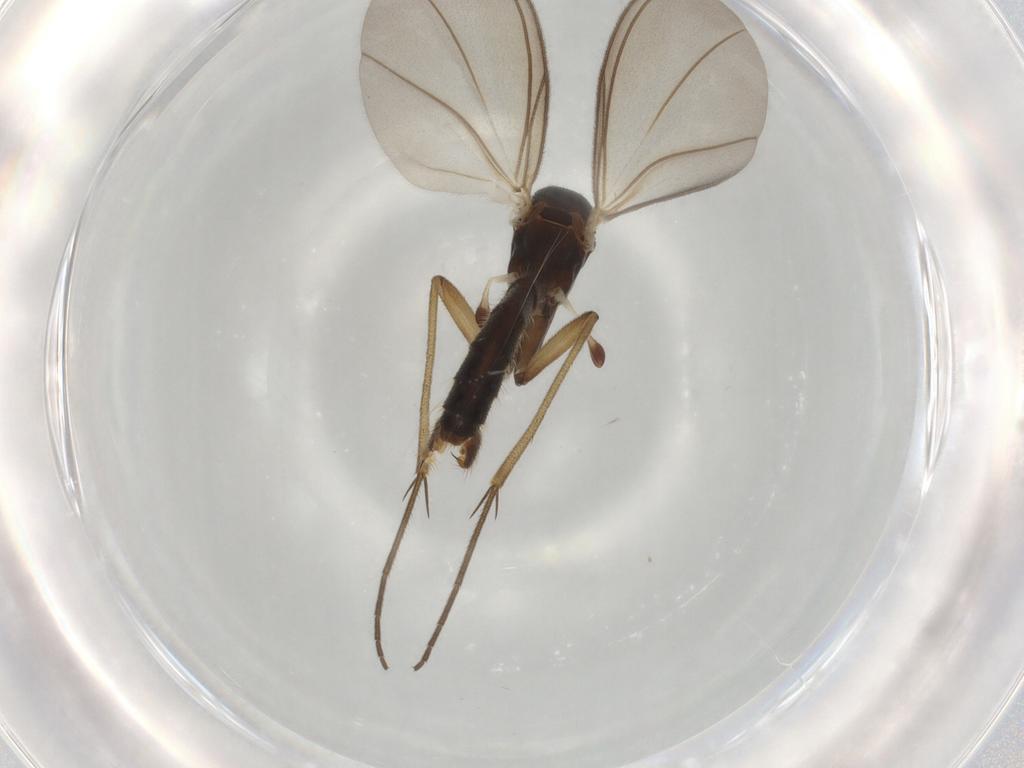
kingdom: Animalia
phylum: Arthropoda
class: Insecta
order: Diptera
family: Mycetophilidae
